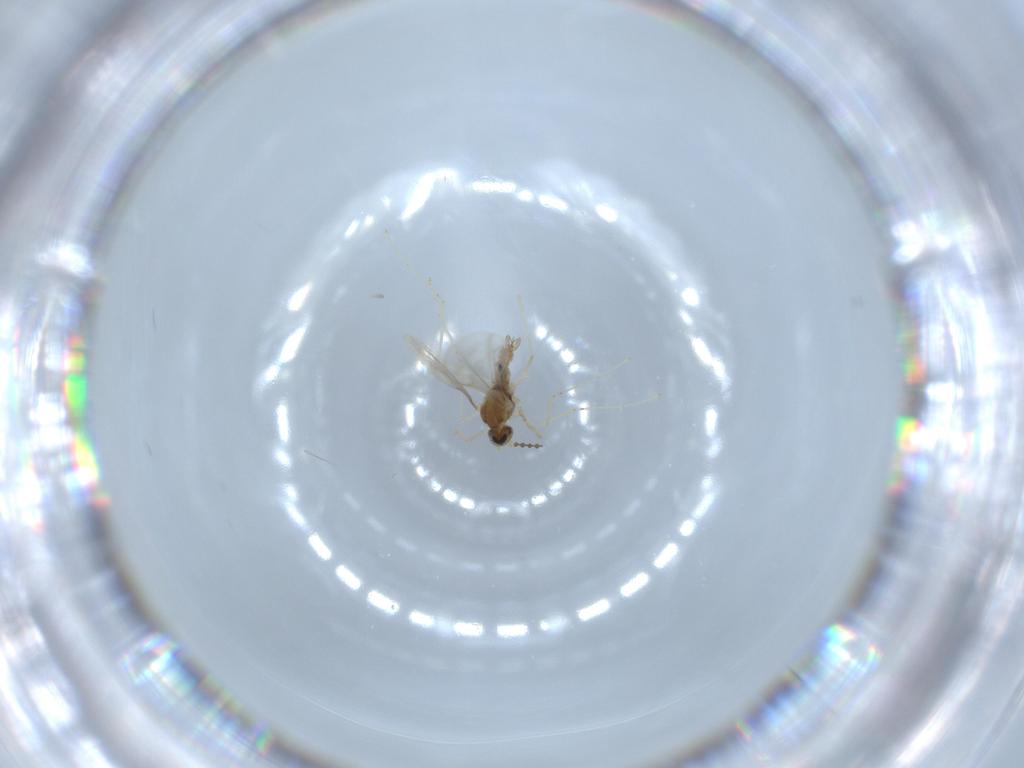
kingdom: Animalia
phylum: Arthropoda
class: Insecta
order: Diptera
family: Cecidomyiidae
